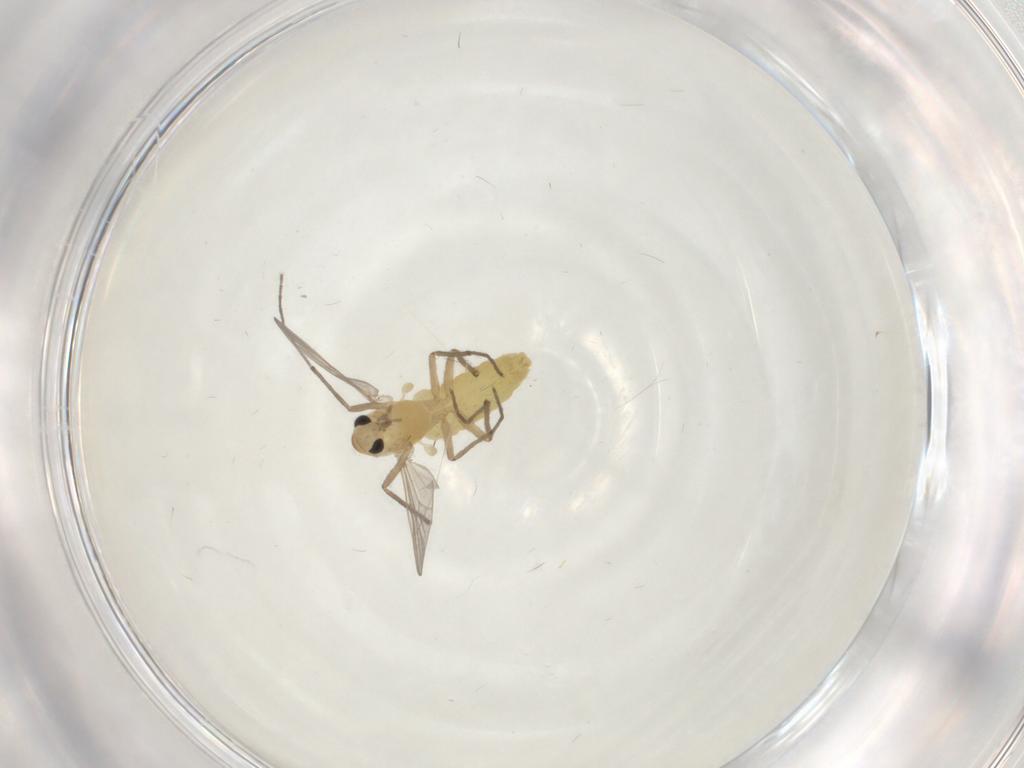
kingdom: Animalia
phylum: Arthropoda
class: Insecta
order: Diptera
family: Chironomidae
